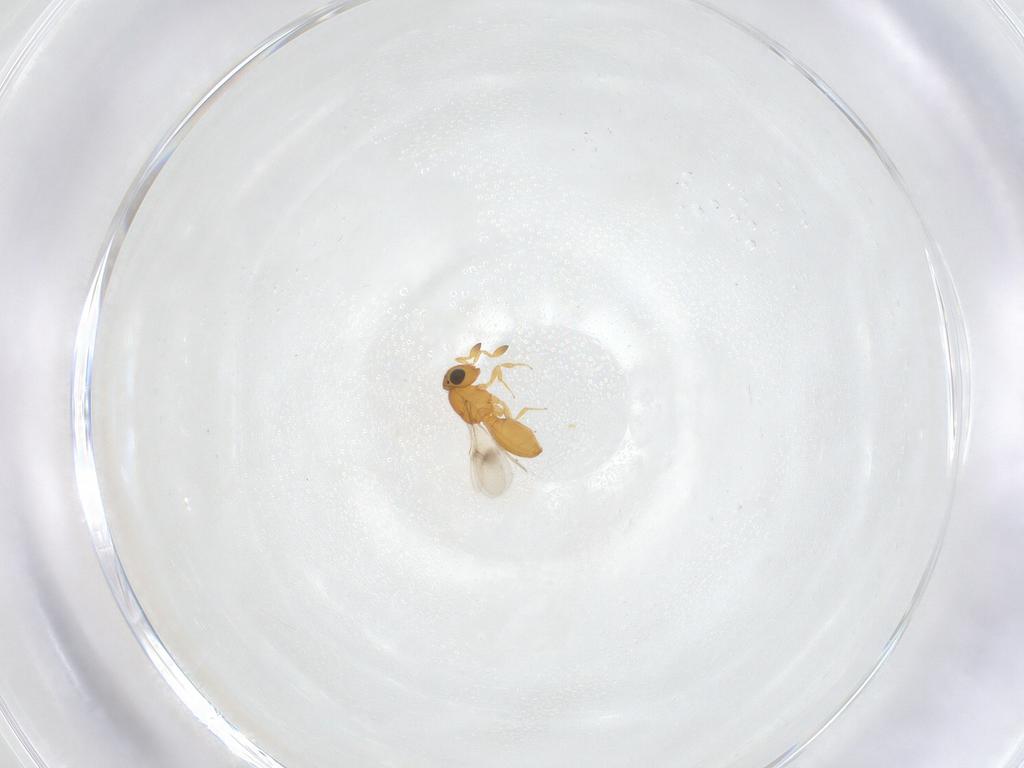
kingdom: Animalia
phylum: Arthropoda
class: Insecta
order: Hymenoptera
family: Scelionidae
